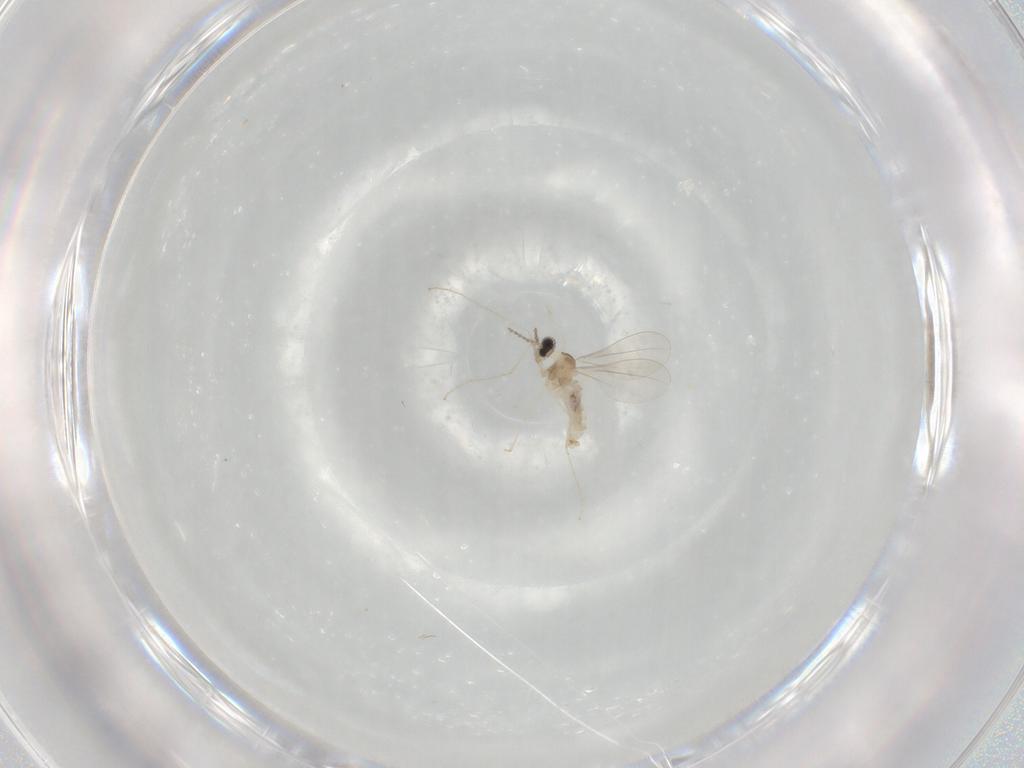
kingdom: Animalia
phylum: Arthropoda
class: Insecta
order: Diptera
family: Cecidomyiidae
